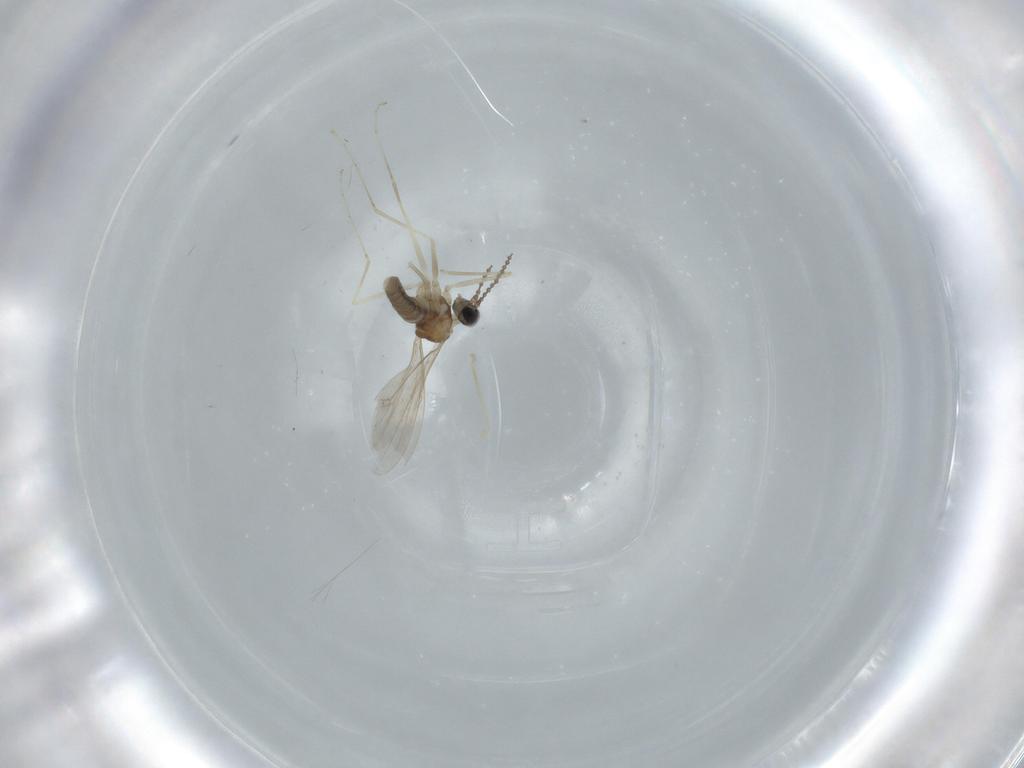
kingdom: Animalia
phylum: Arthropoda
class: Insecta
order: Diptera
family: Cecidomyiidae
